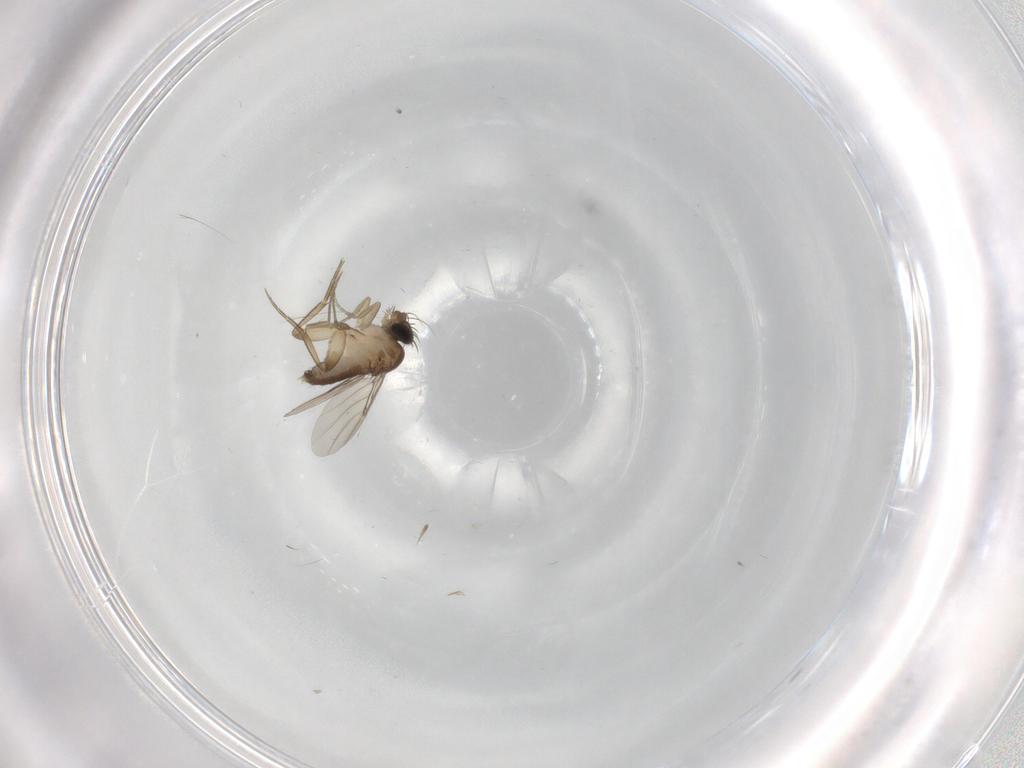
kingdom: Animalia
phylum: Arthropoda
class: Insecta
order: Diptera
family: Phoridae
